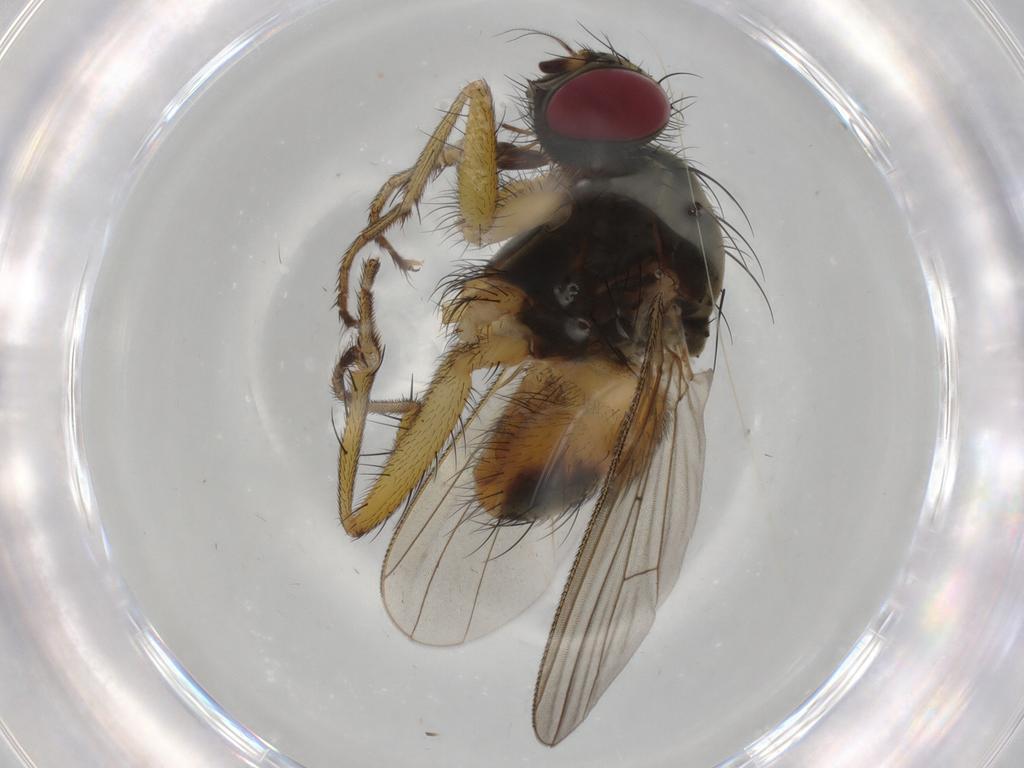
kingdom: Animalia
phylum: Arthropoda
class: Insecta
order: Diptera
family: Muscidae
